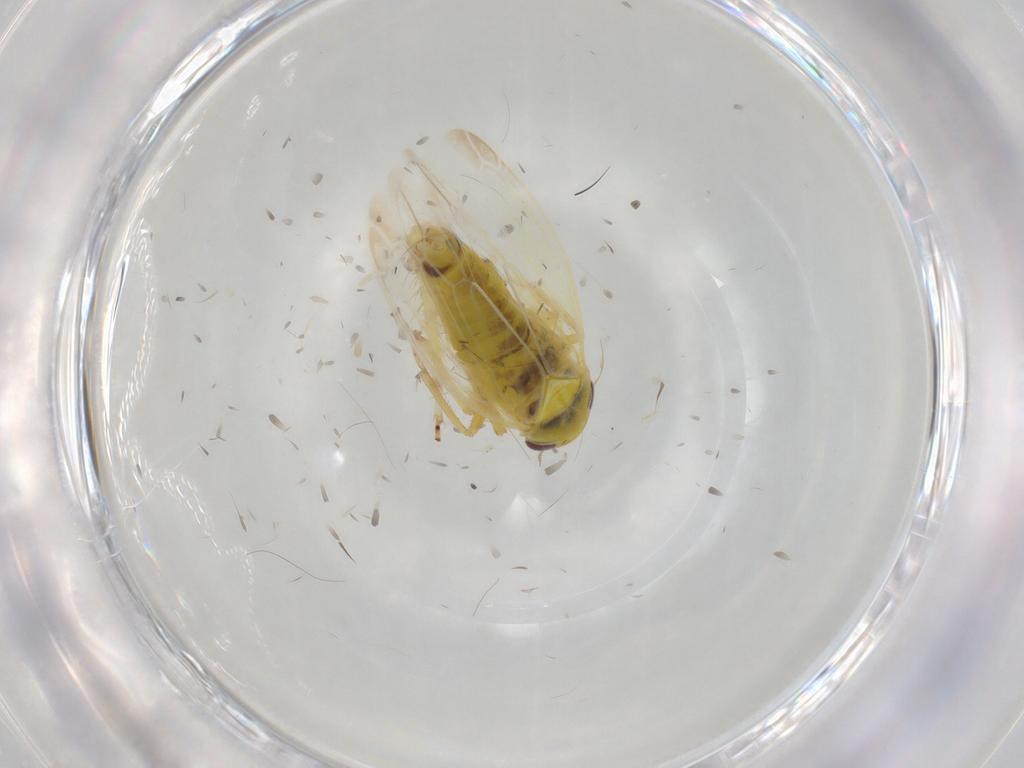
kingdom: Animalia
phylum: Arthropoda
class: Insecta
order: Hemiptera
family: Cicadellidae
